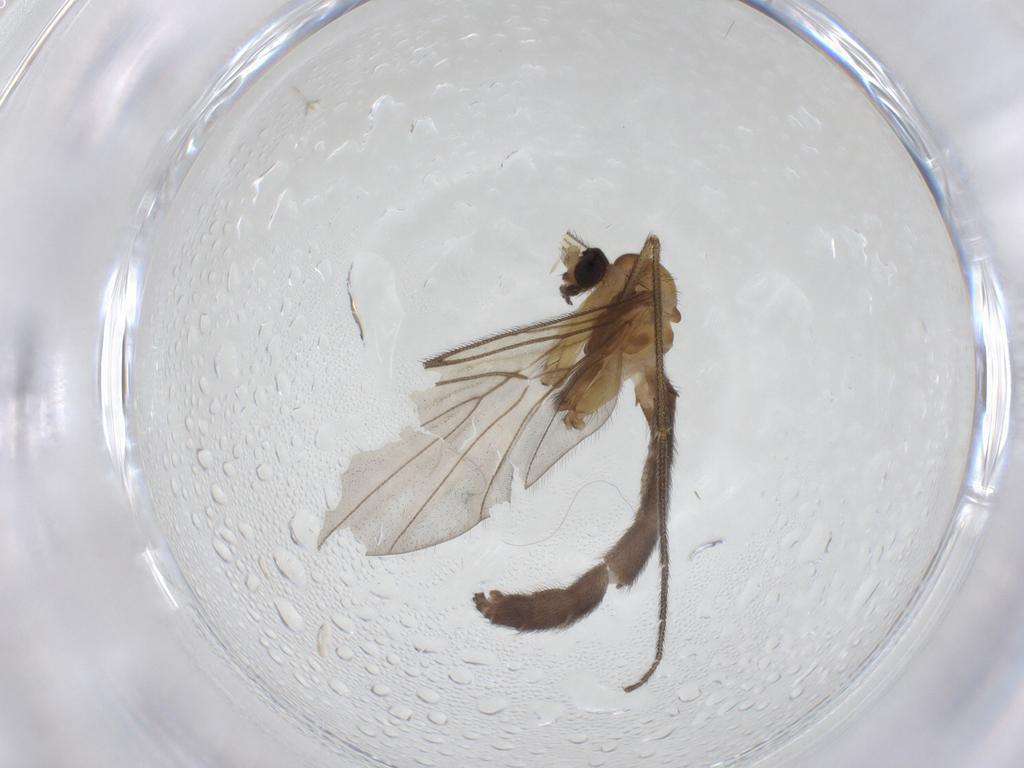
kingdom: Animalia
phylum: Arthropoda
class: Insecta
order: Diptera
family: Keroplatidae
